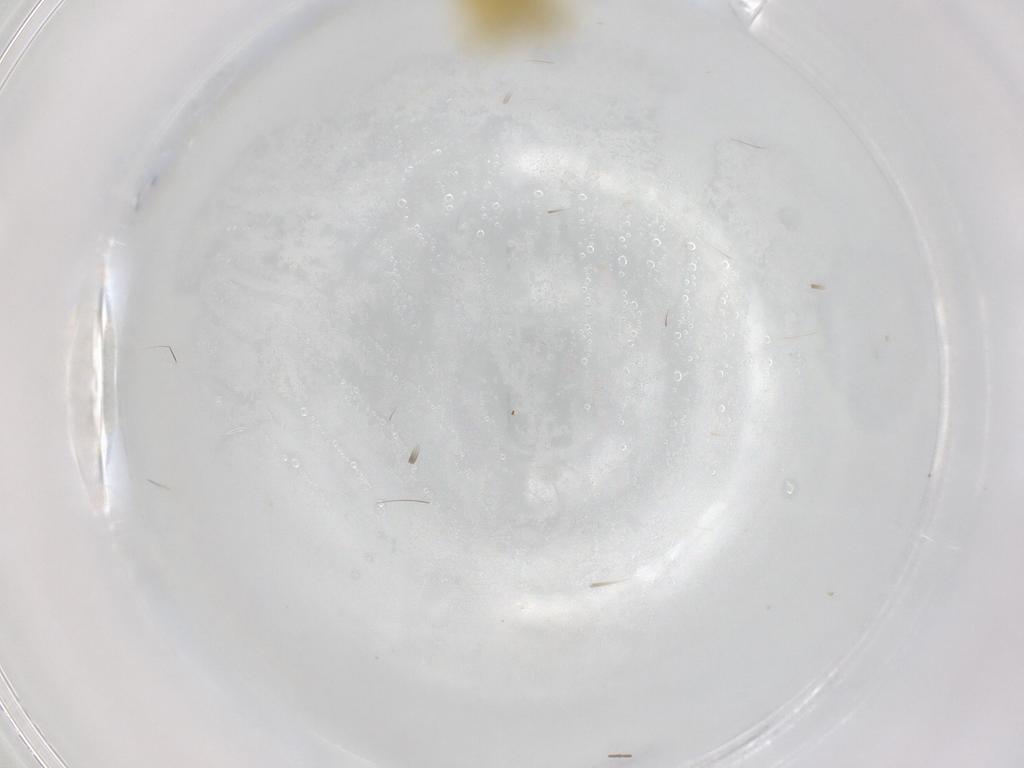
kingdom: Animalia
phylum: Arthropoda
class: Insecta
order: Hemiptera
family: Cicadellidae
